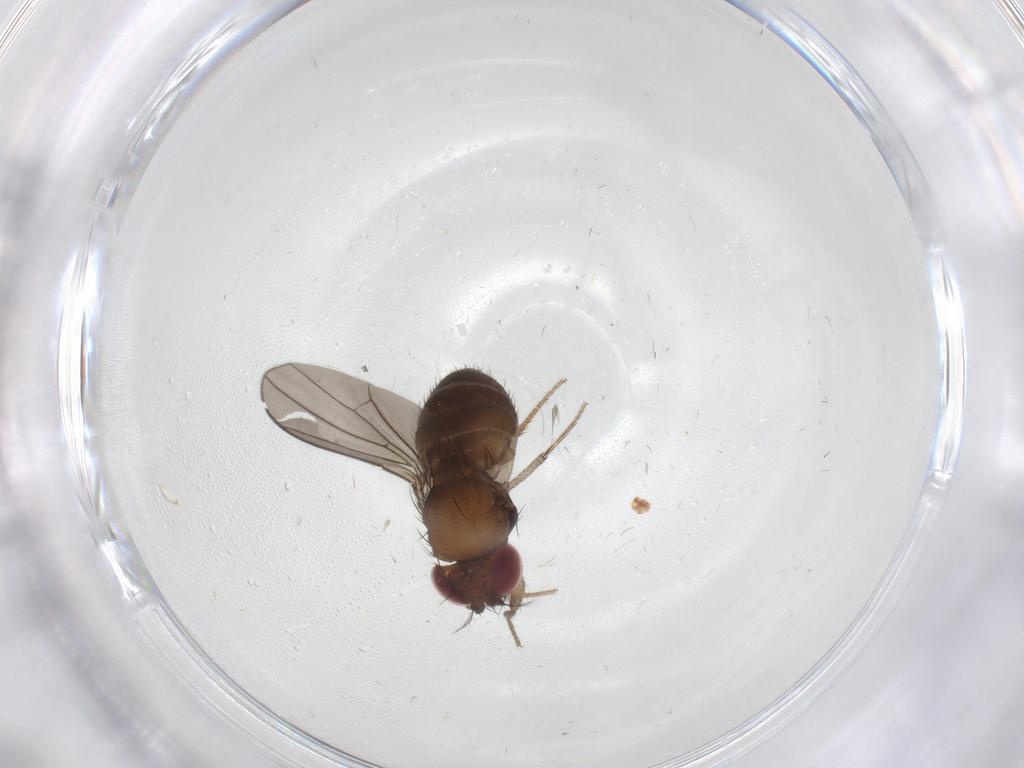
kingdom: Animalia
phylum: Arthropoda
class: Insecta
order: Diptera
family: Drosophilidae
